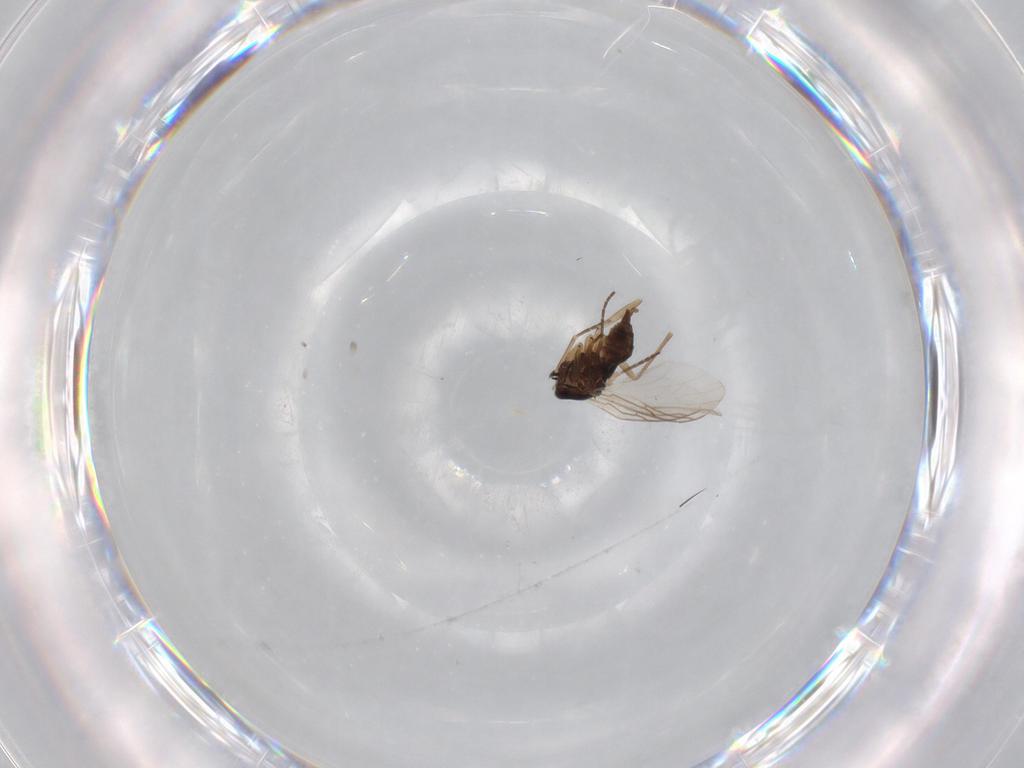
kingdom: Animalia
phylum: Arthropoda
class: Insecta
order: Diptera
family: Sciaridae
